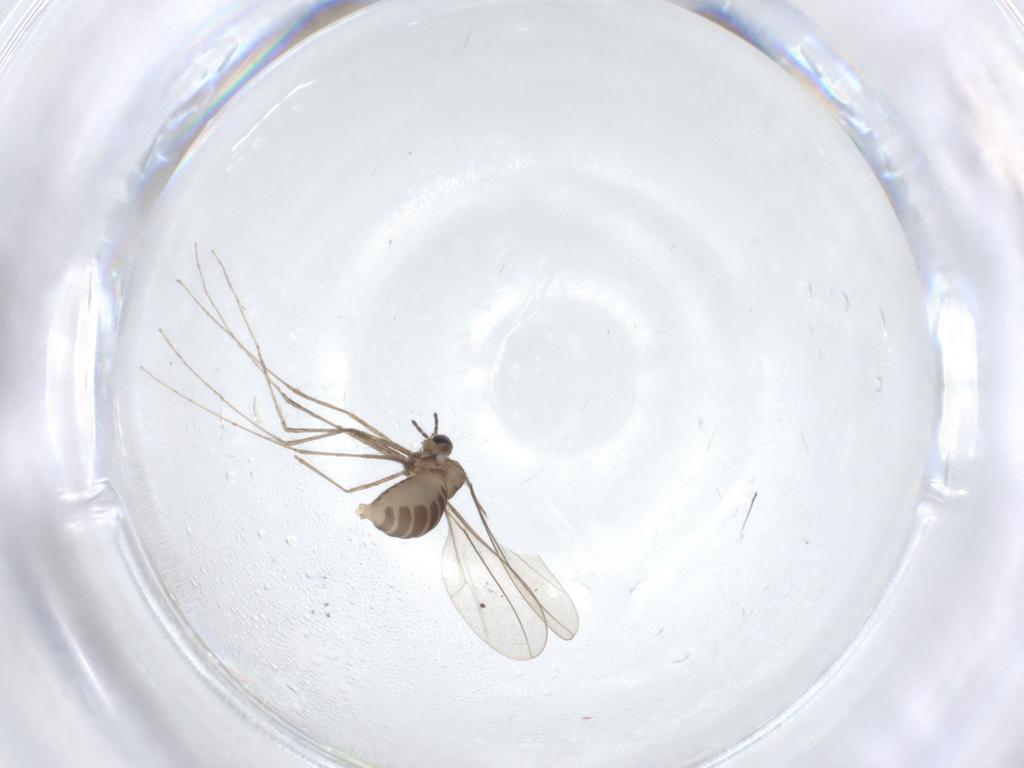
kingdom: Animalia
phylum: Arthropoda
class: Insecta
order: Diptera
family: Cecidomyiidae
